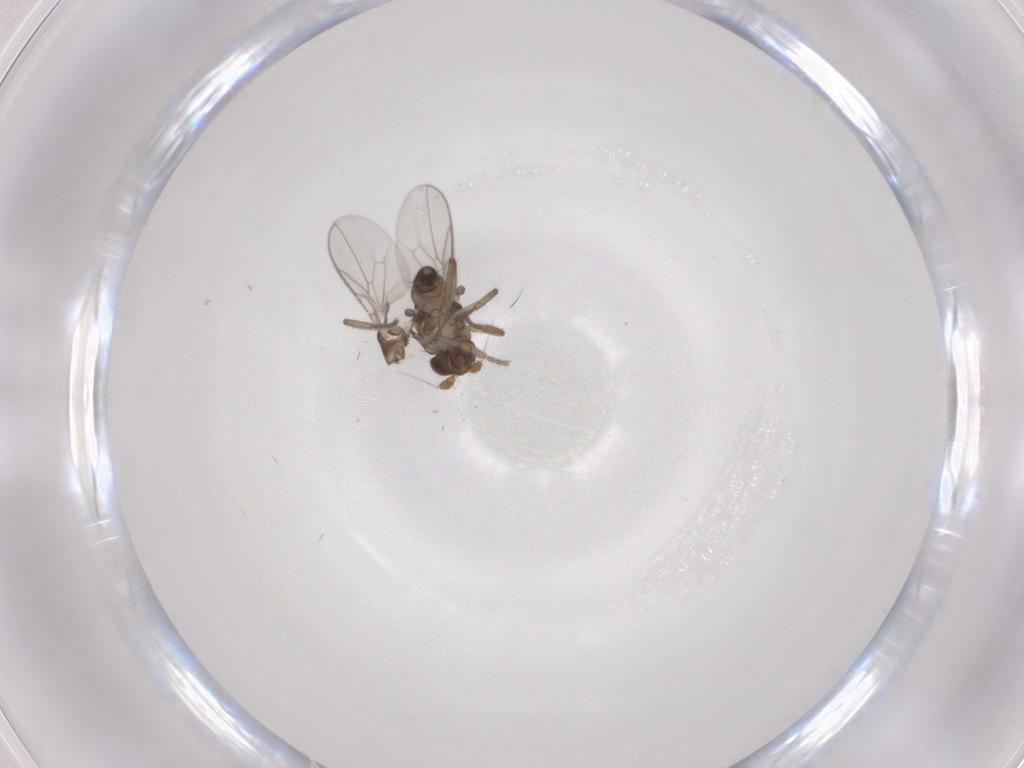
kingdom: Animalia
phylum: Arthropoda
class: Insecta
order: Diptera
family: Sphaeroceridae
